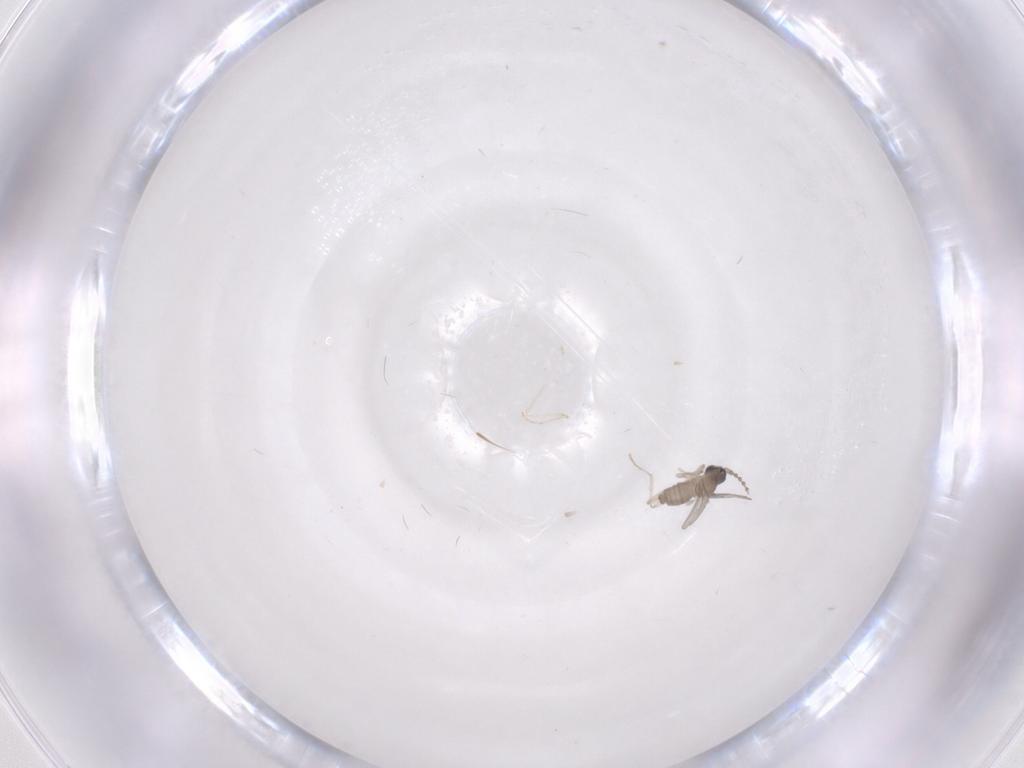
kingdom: Animalia
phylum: Arthropoda
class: Insecta
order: Diptera
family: Cecidomyiidae
